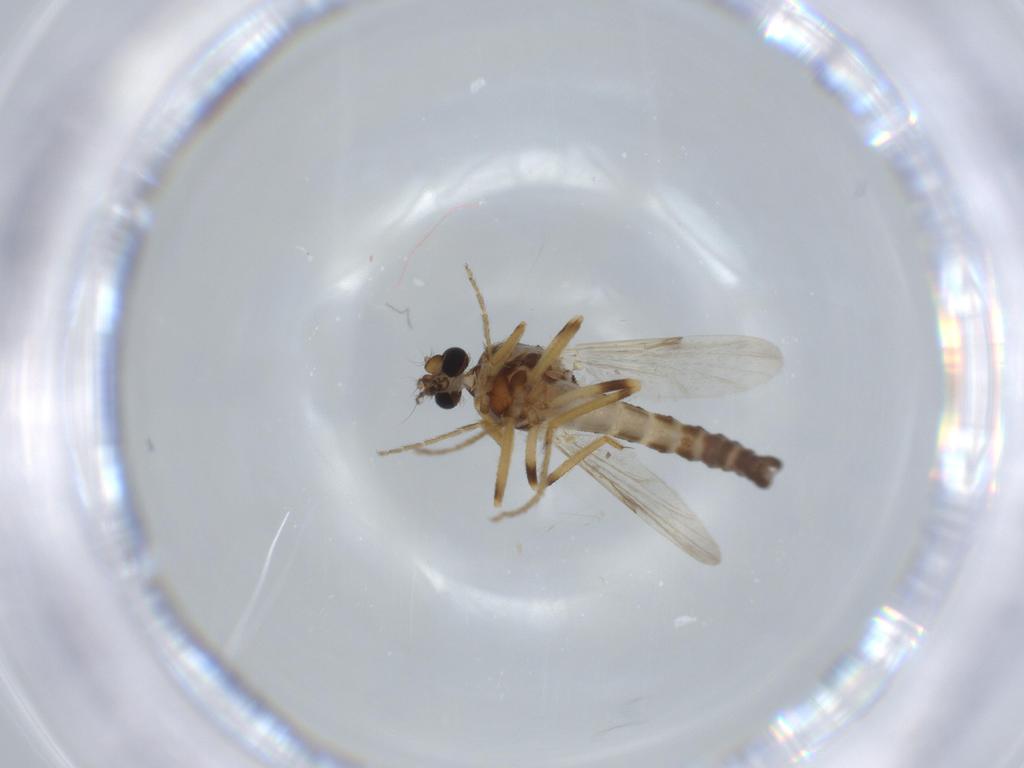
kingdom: Animalia
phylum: Arthropoda
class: Insecta
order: Diptera
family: Ceratopogonidae
